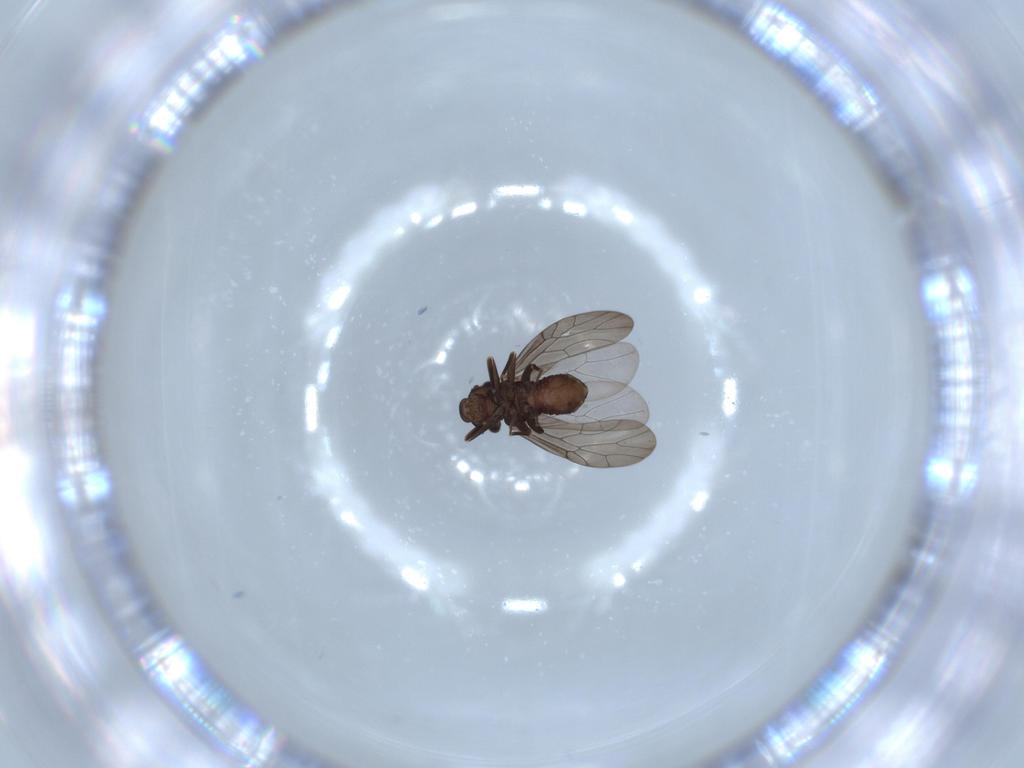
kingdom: Animalia
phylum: Arthropoda
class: Insecta
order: Psocodea
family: Lepidopsocidae
